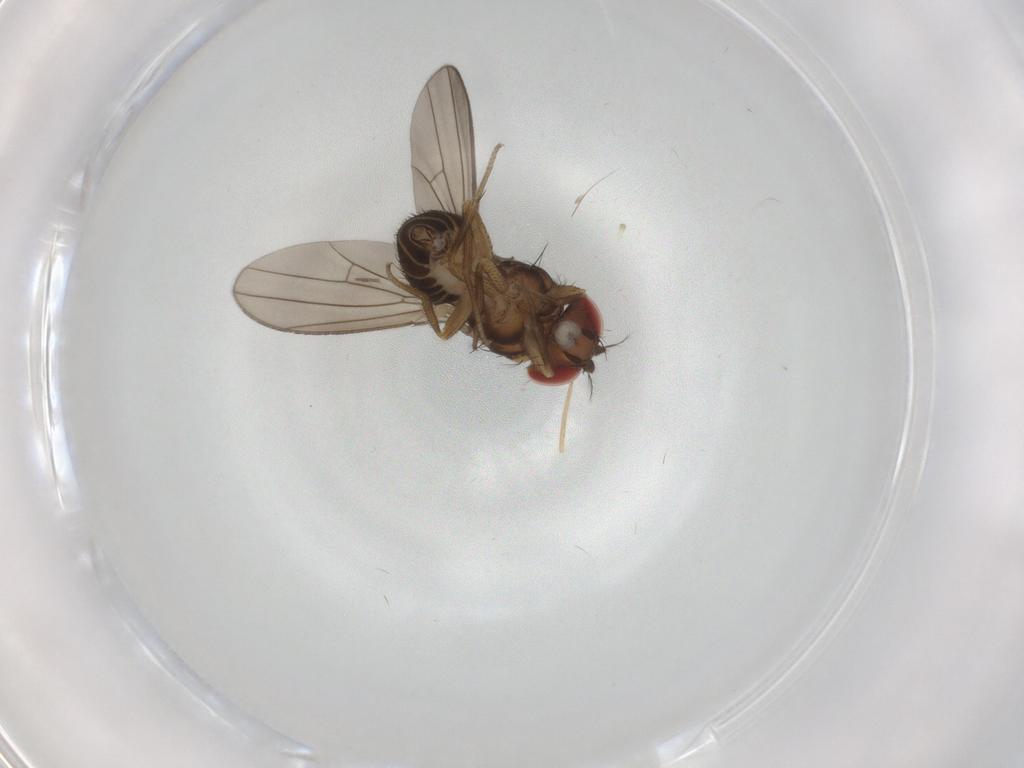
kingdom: Animalia
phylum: Arthropoda
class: Insecta
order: Diptera
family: Drosophilidae
